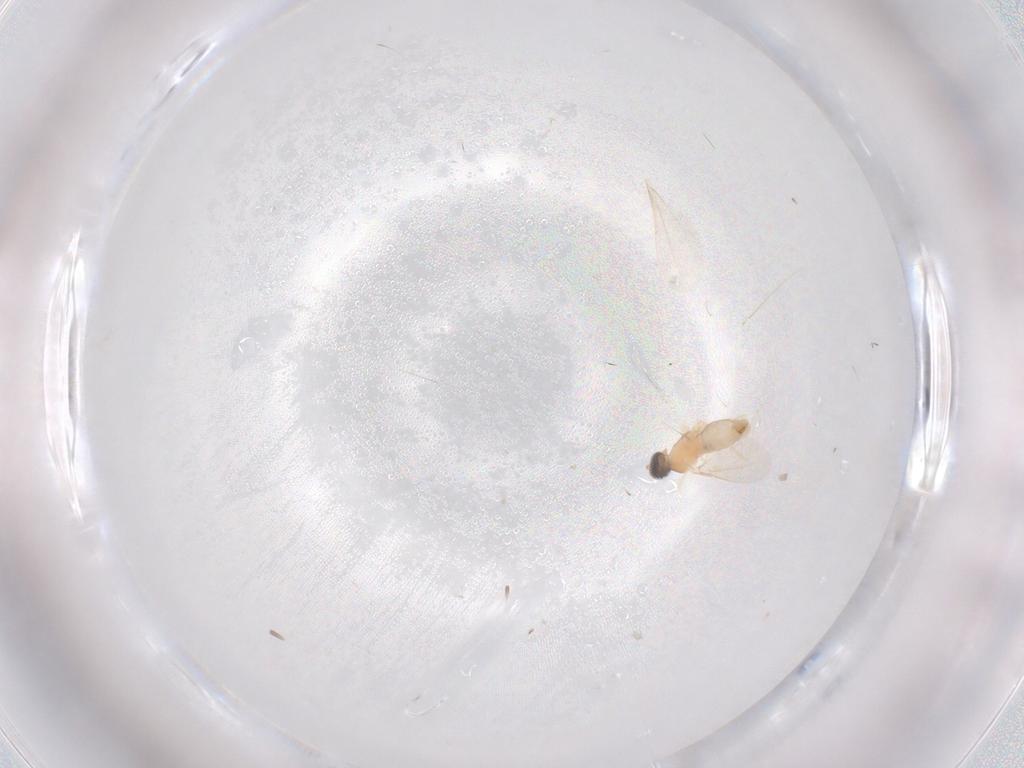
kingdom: Animalia
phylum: Arthropoda
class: Insecta
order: Diptera
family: Psychodidae
